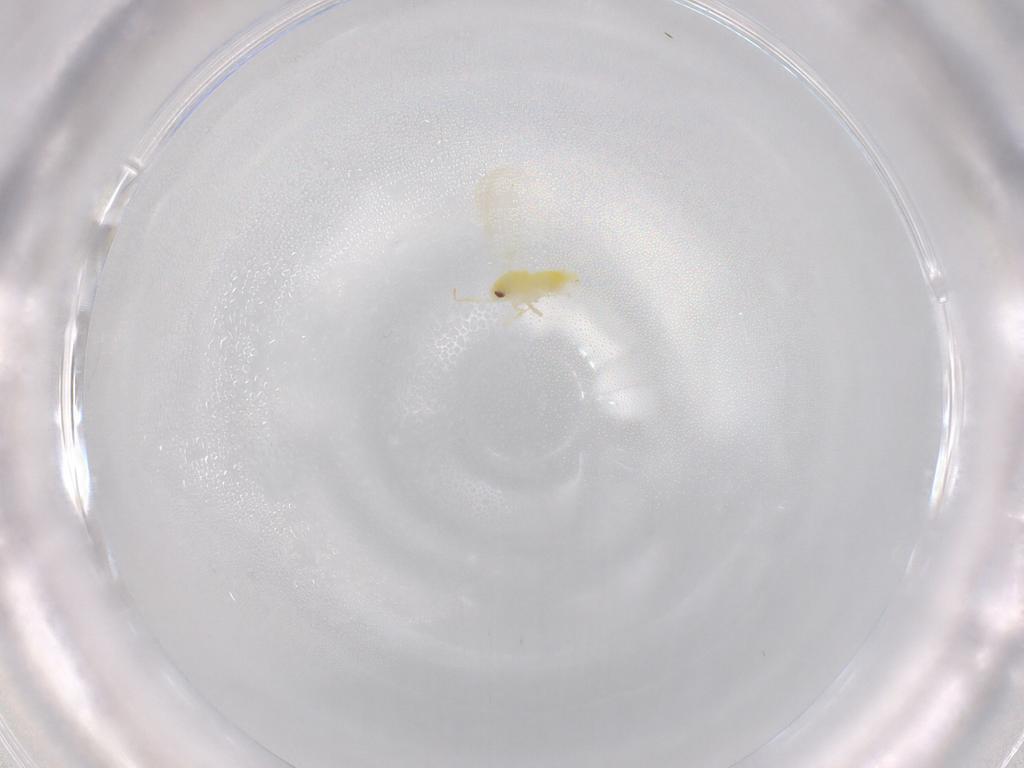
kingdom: Animalia
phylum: Arthropoda
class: Insecta
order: Hemiptera
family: Aleyrodidae
